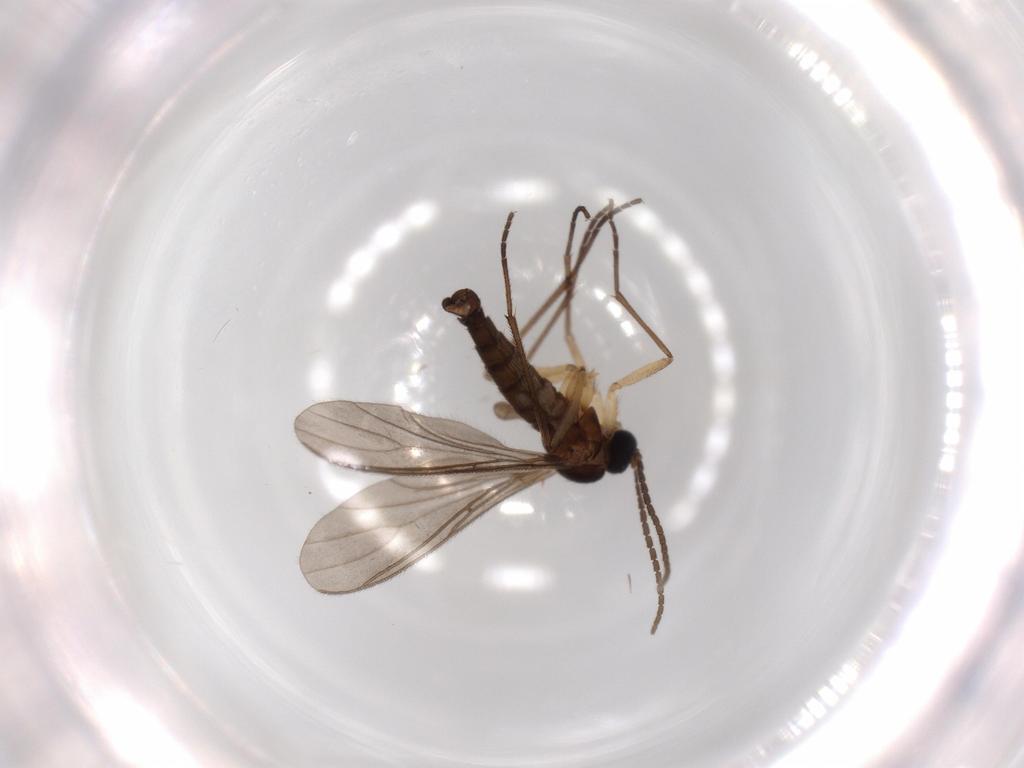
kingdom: Animalia
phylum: Arthropoda
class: Insecta
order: Diptera
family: Sciaridae
